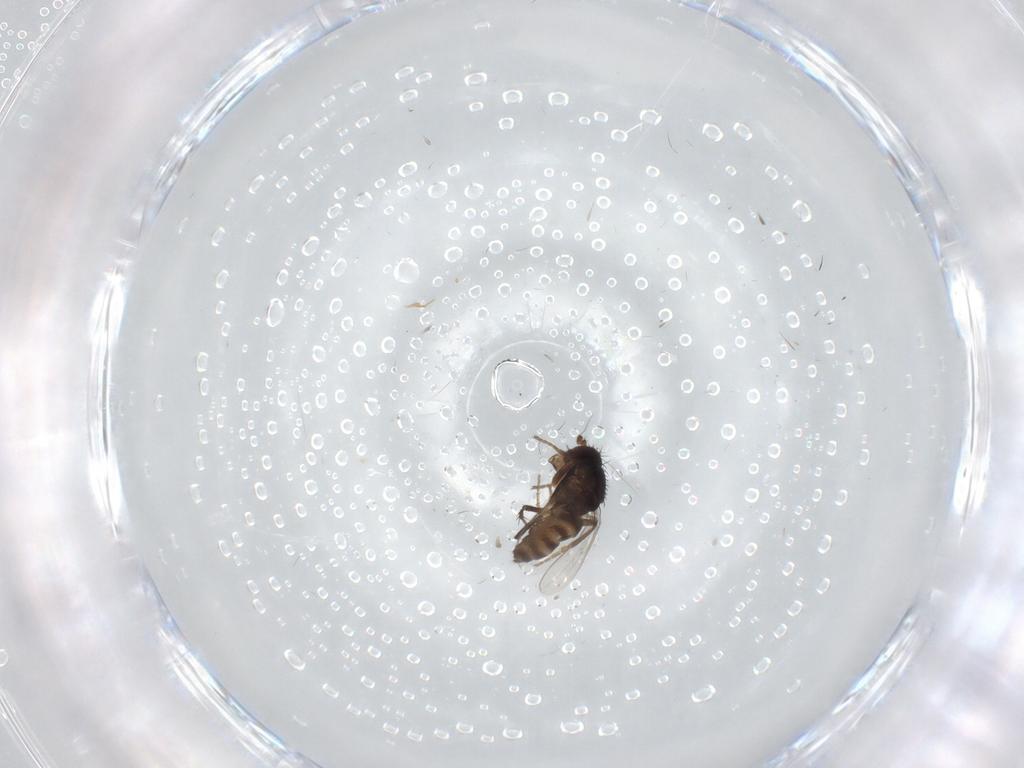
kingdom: Animalia
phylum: Arthropoda
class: Insecta
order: Diptera
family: Sphaeroceridae
